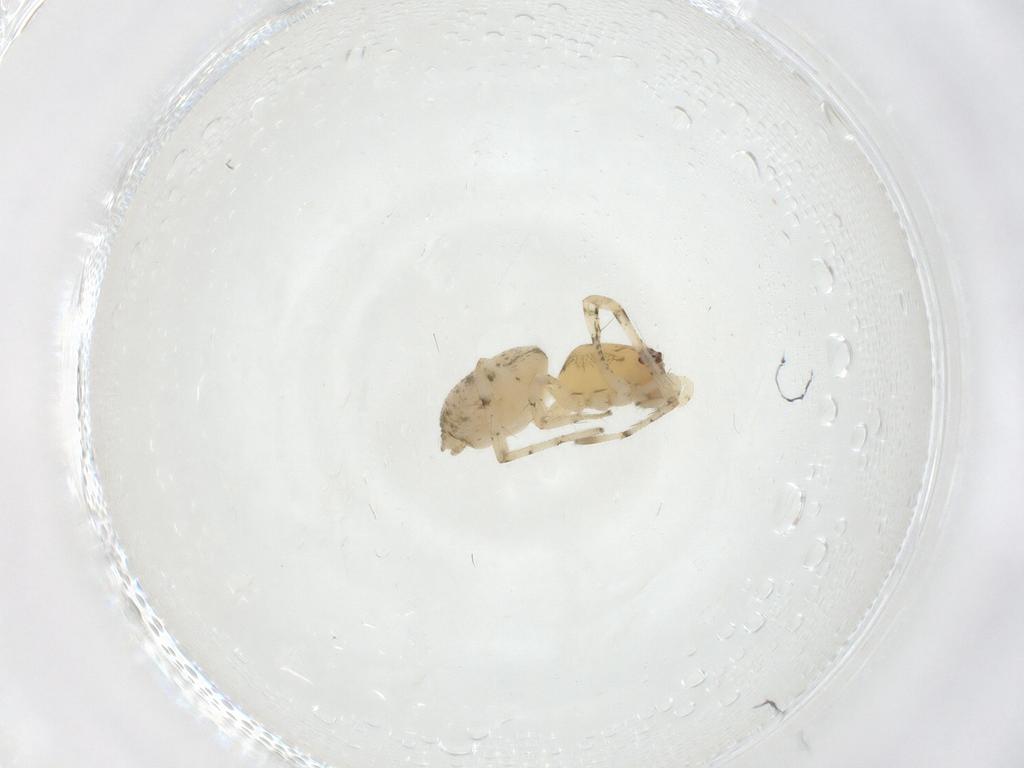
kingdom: Animalia
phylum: Arthropoda
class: Arachnida
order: Araneae
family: Anyphaenidae
